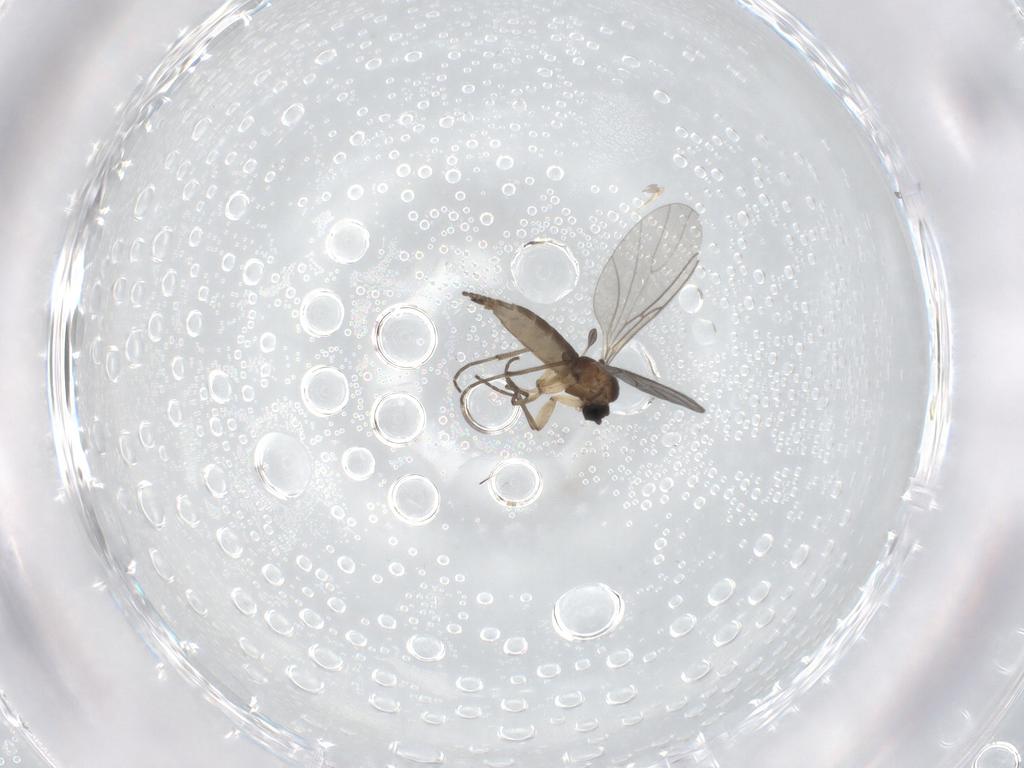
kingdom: Animalia
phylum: Arthropoda
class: Insecta
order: Diptera
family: Sciaridae
